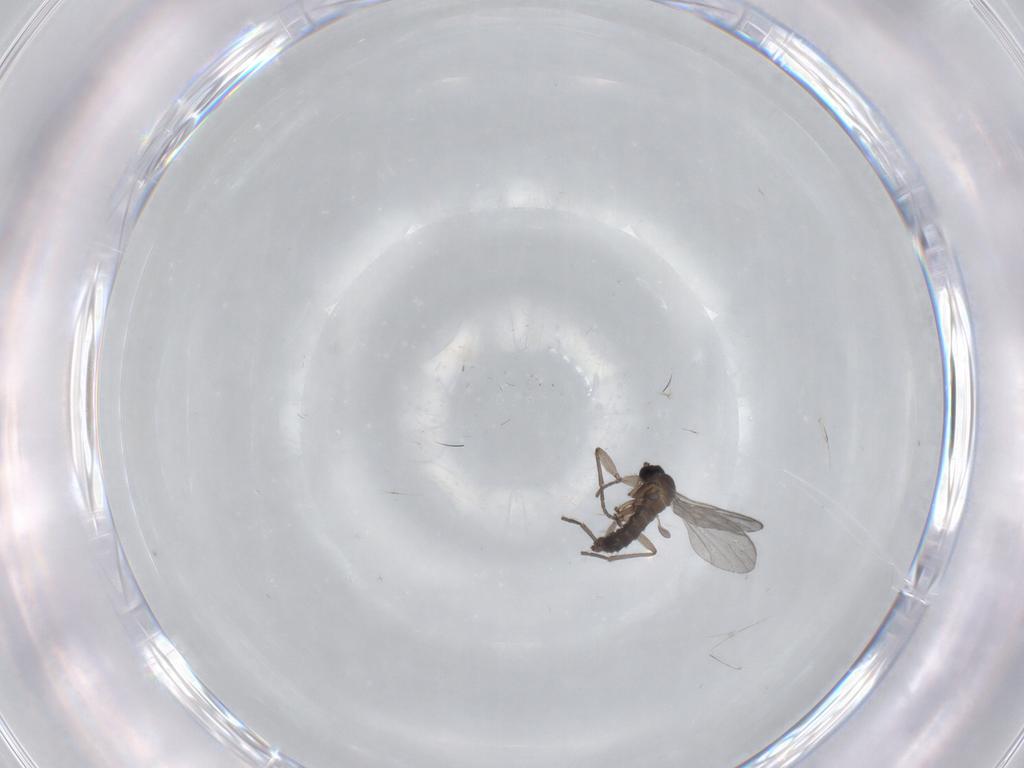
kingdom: Animalia
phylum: Arthropoda
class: Insecta
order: Diptera
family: Sciaridae
